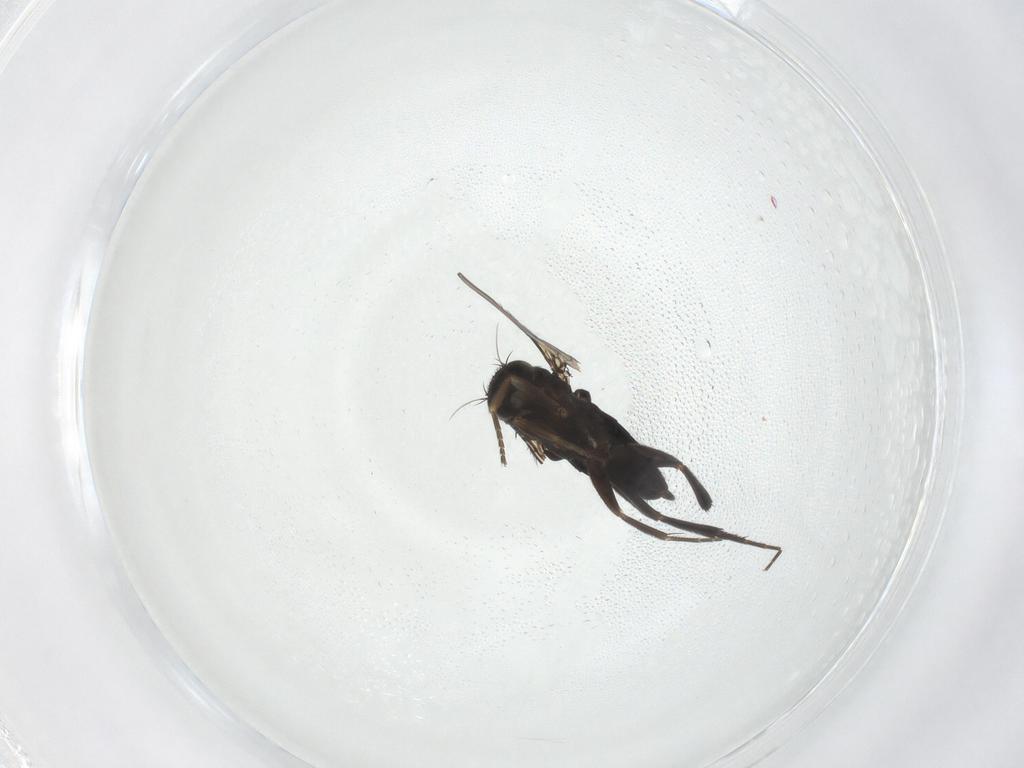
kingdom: Animalia
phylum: Arthropoda
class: Insecta
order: Diptera
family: Phoridae
